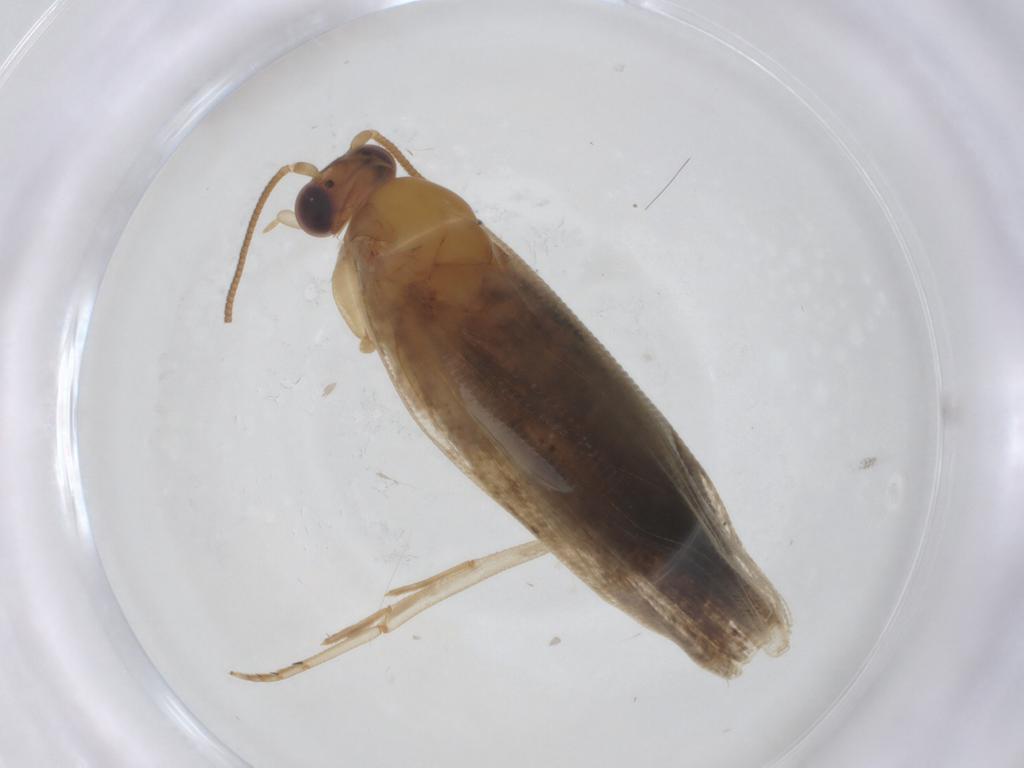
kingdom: Animalia
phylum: Arthropoda
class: Insecta
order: Lepidoptera
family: Tortricidae
